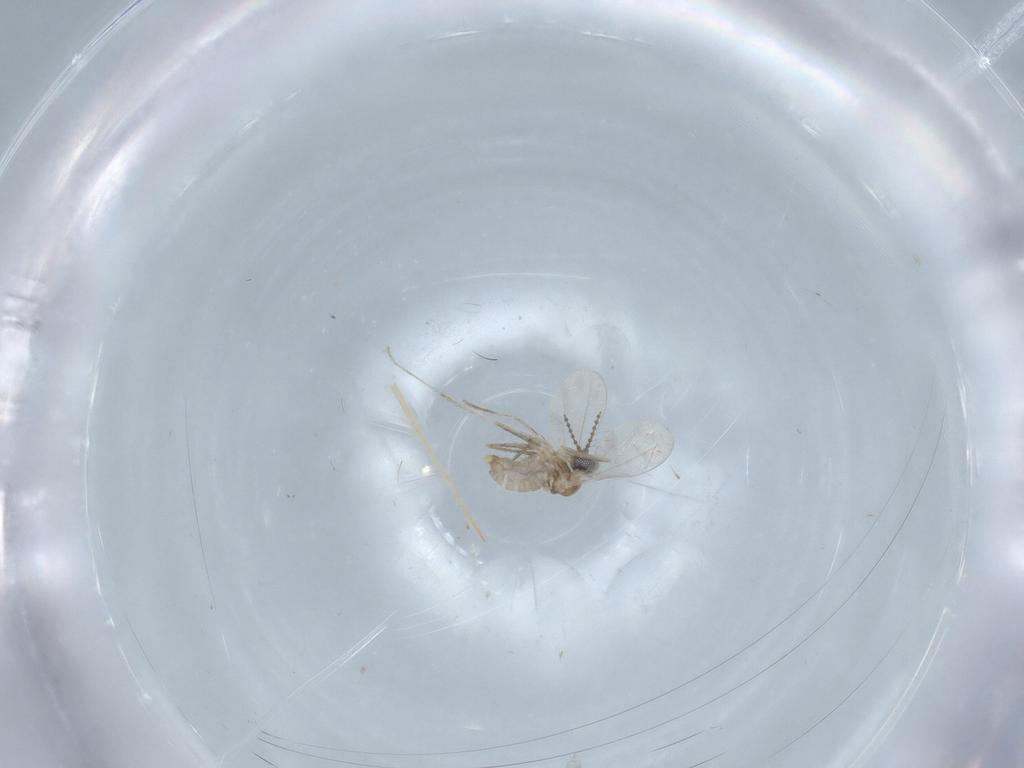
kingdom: Animalia
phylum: Arthropoda
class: Insecta
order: Diptera
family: Cecidomyiidae
